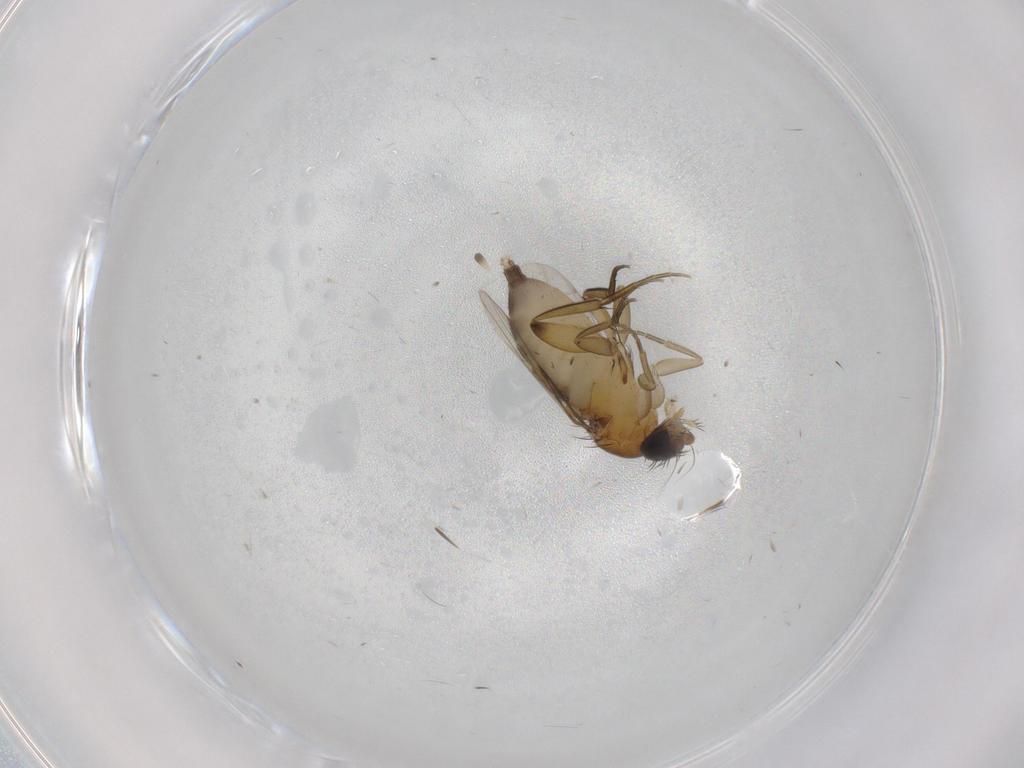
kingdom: Animalia
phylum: Arthropoda
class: Insecta
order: Diptera
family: Phoridae
